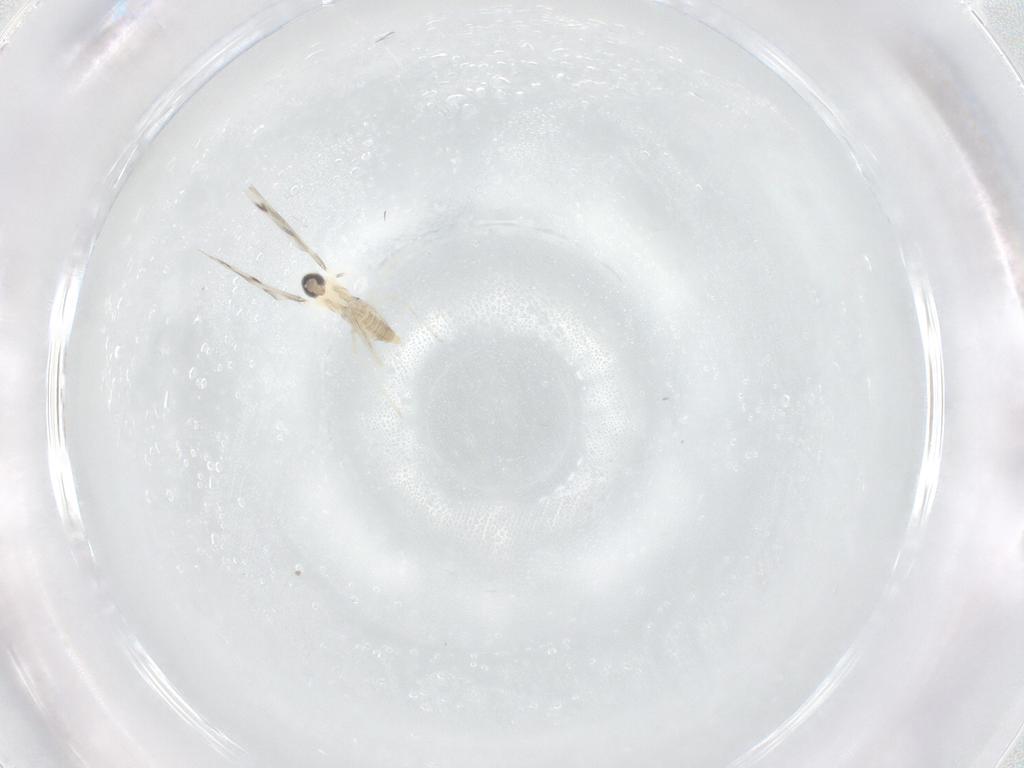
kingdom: Animalia
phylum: Arthropoda
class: Insecta
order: Diptera
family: Cecidomyiidae
